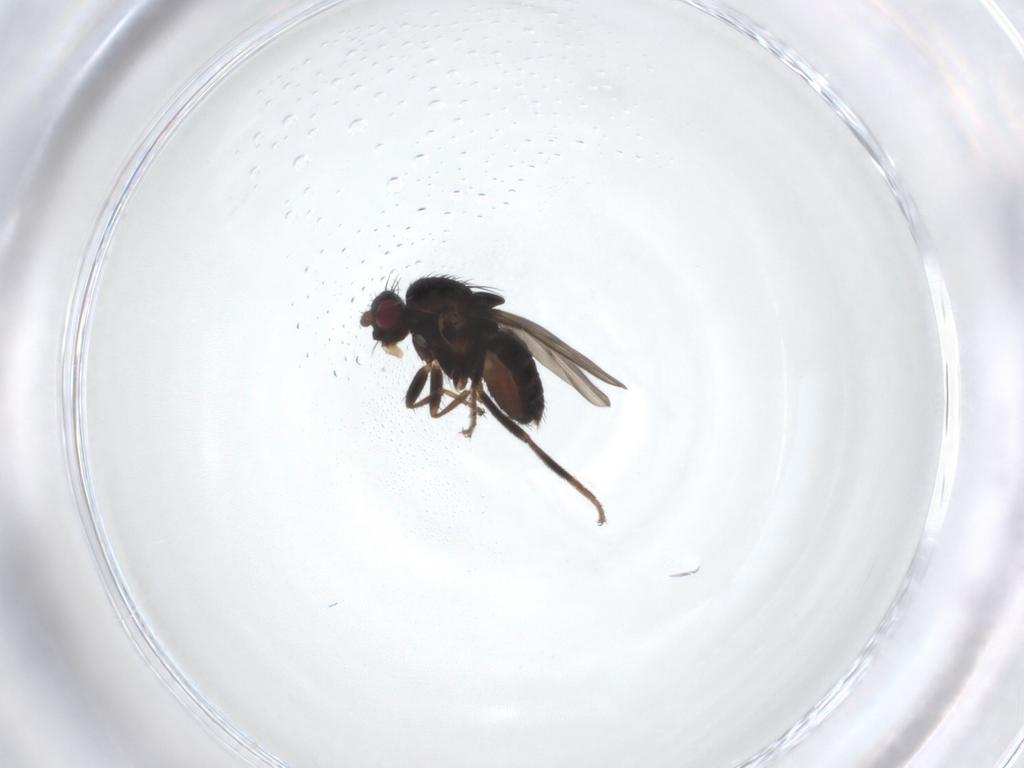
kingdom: Animalia
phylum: Arthropoda
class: Insecta
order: Diptera
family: Sphaeroceridae
